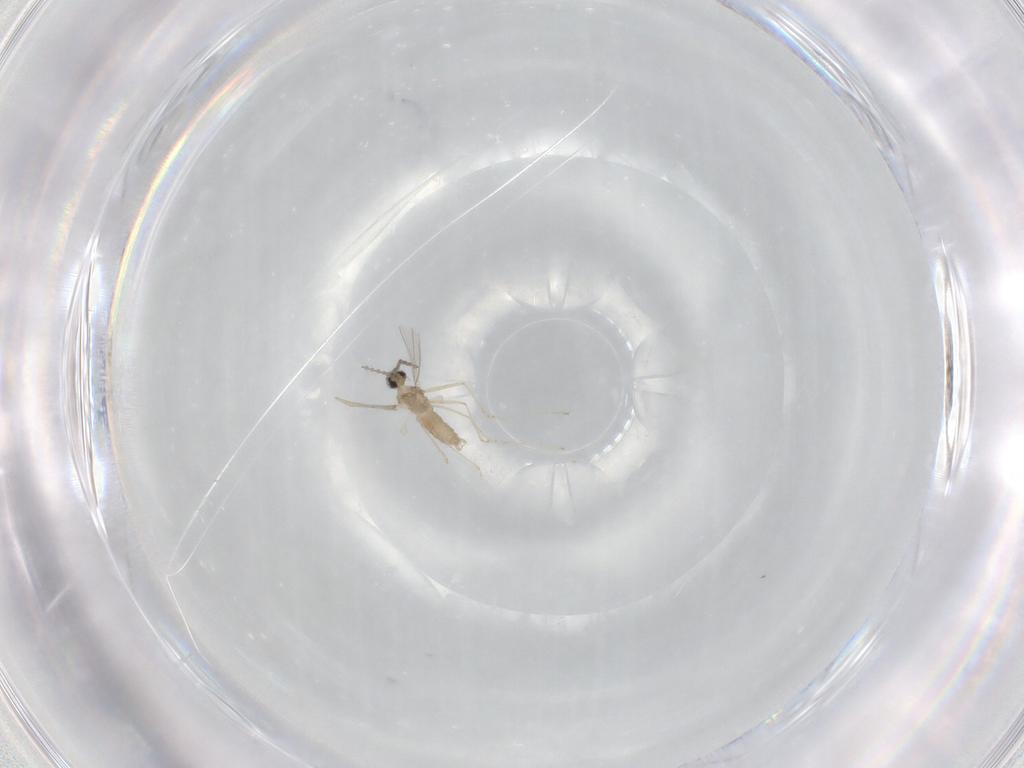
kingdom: Animalia
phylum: Arthropoda
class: Insecta
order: Diptera
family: Cecidomyiidae
